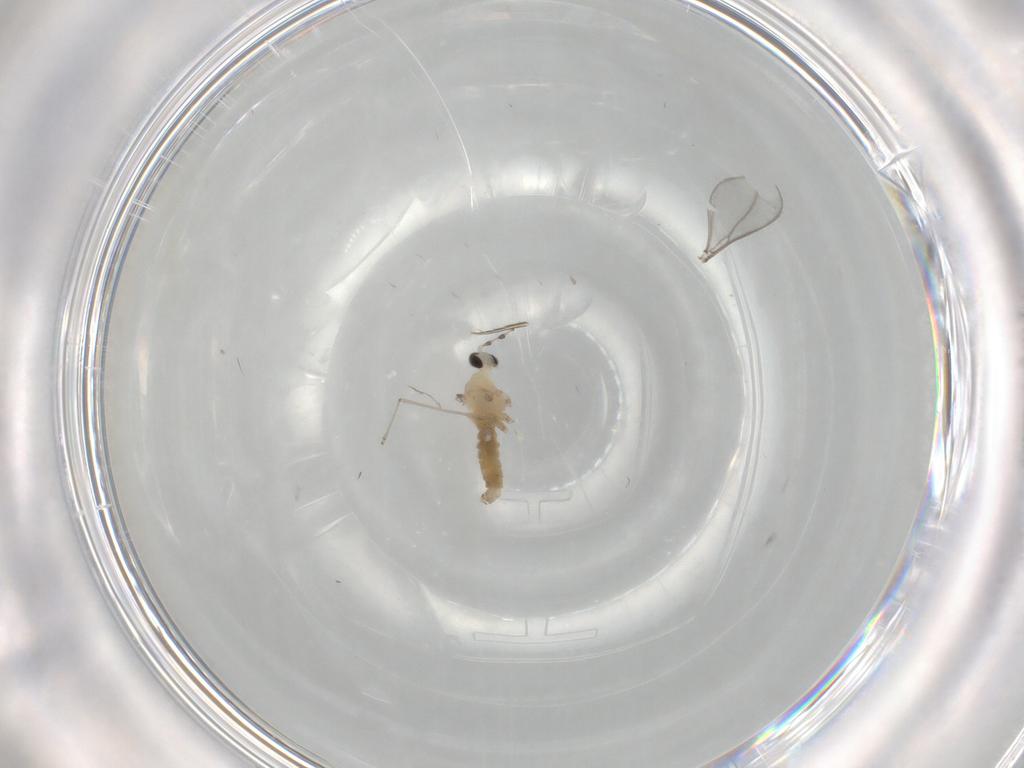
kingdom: Animalia
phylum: Arthropoda
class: Insecta
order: Diptera
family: Cecidomyiidae
